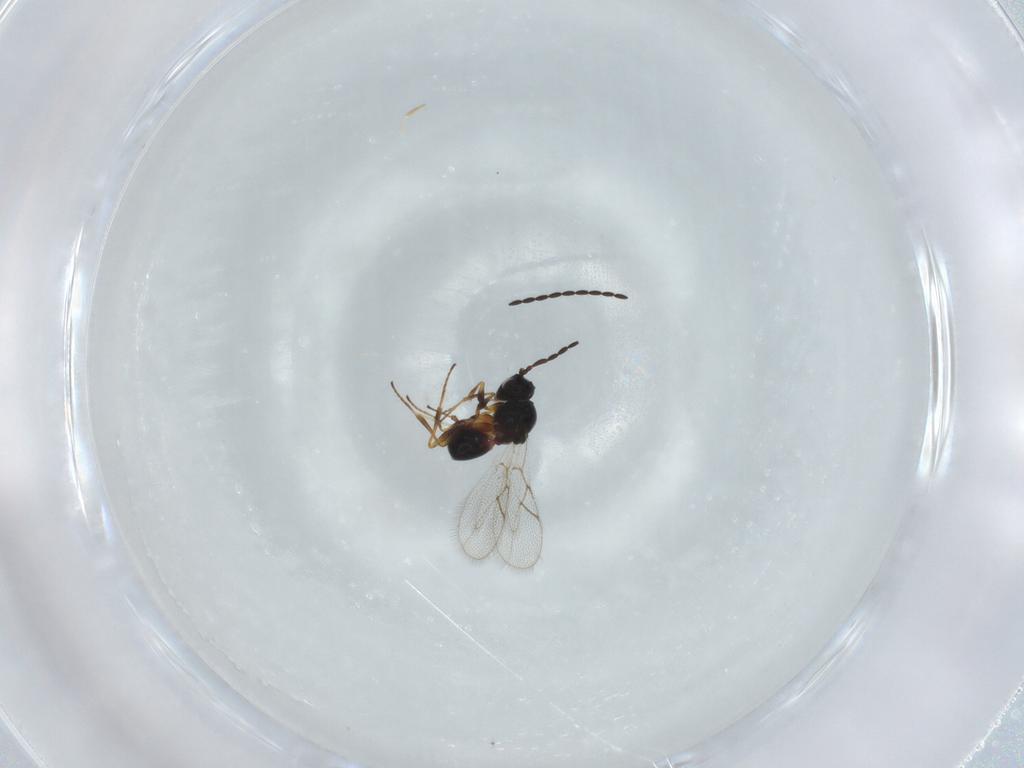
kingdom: Animalia
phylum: Arthropoda
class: Insecta
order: Hymenoptera
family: Figitidae
